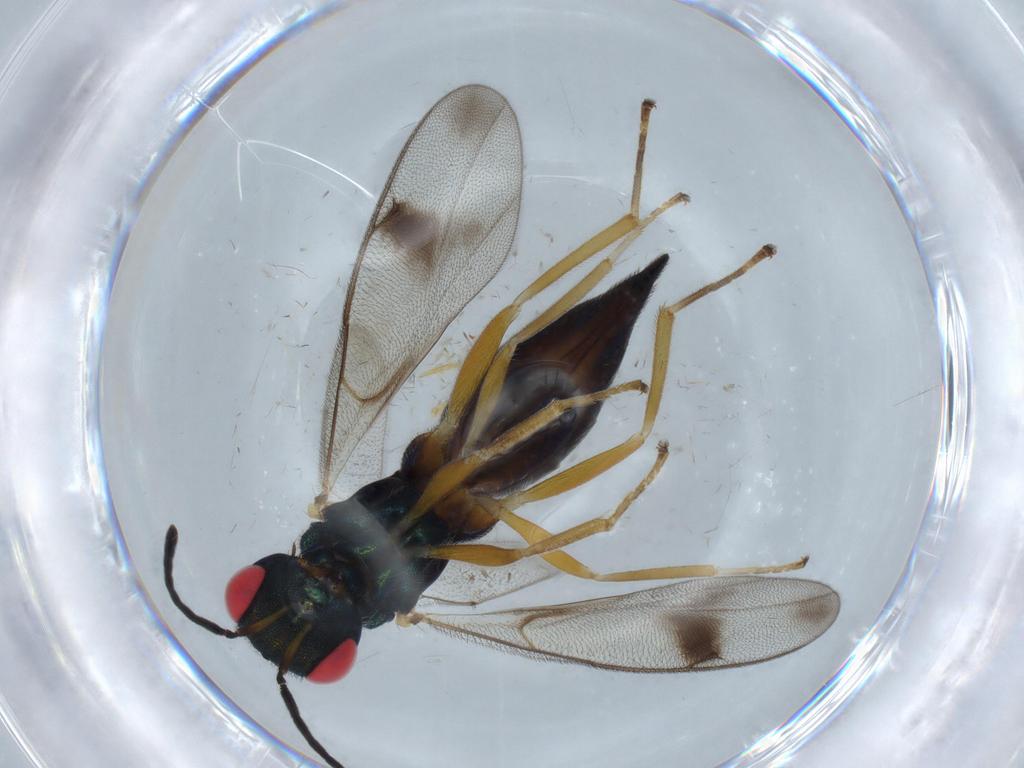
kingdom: Animalia
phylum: Arthropoda
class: Insecta
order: Hymenoptera
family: Pteromalidae
